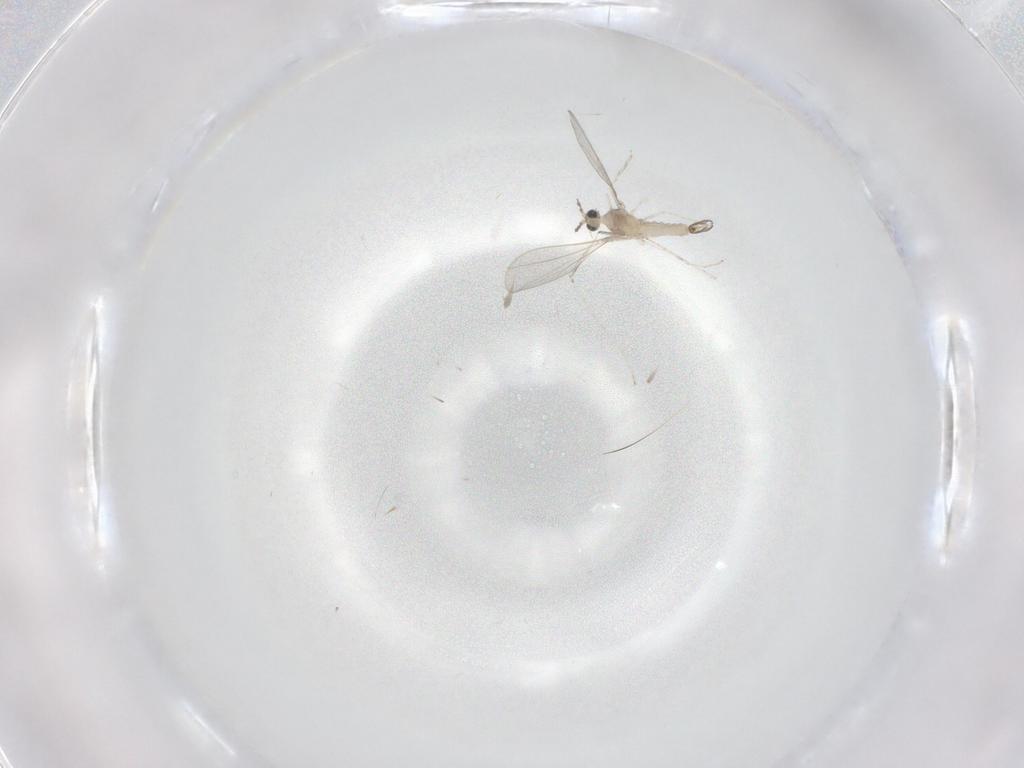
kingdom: Animalia
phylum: Arthropoda
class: Insecta
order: Diptera
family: Cecidomyiidae
